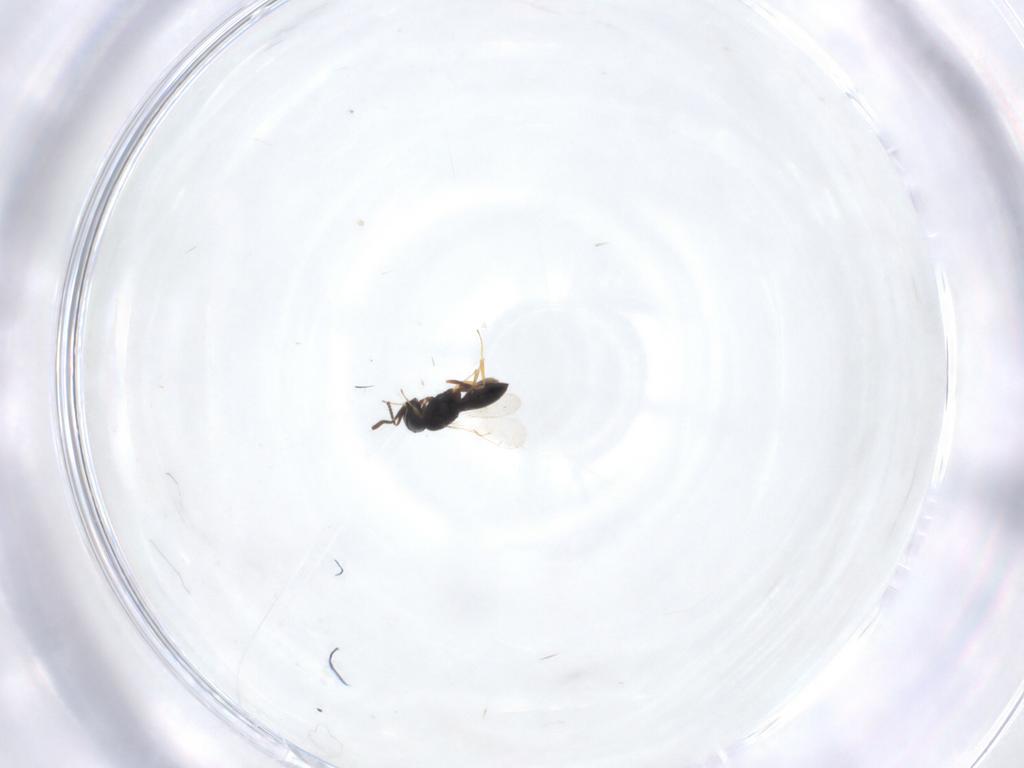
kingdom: Animalia
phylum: Arthropoda
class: Insecta
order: Hymenoptera
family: Scelionidae
